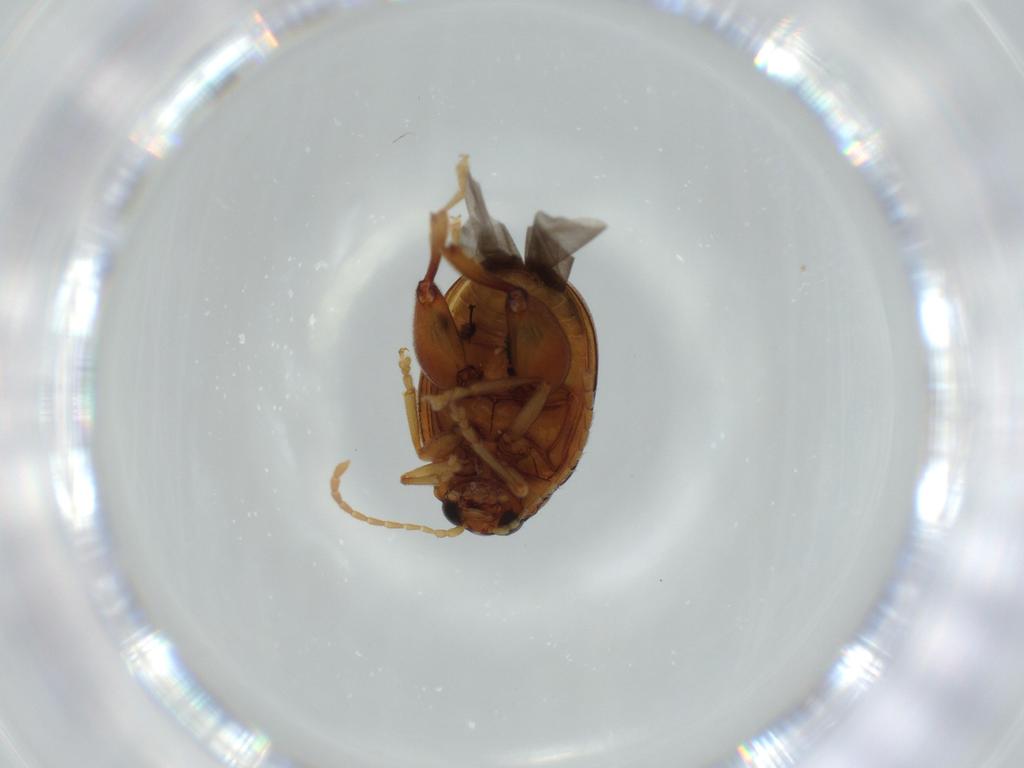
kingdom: Animalia
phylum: Arthropoda
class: Insecta
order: Coleoptera
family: Chrysomelidae
